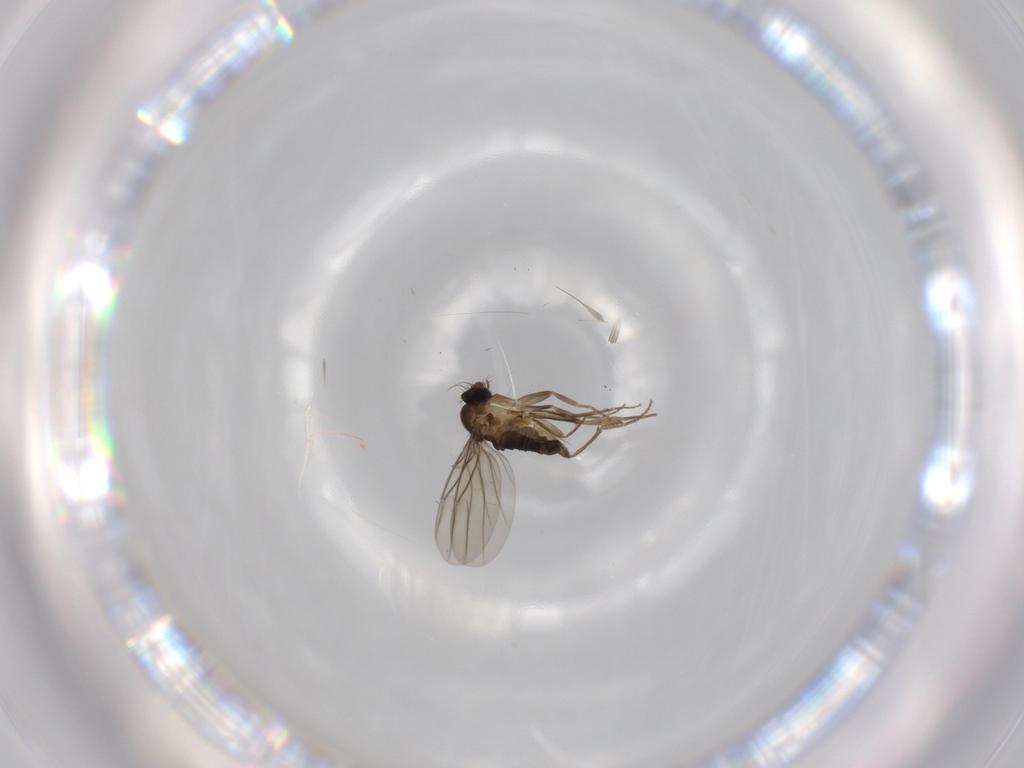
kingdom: Animalia
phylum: Arthropoda
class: Insecta
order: Diptera
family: Phoridae
